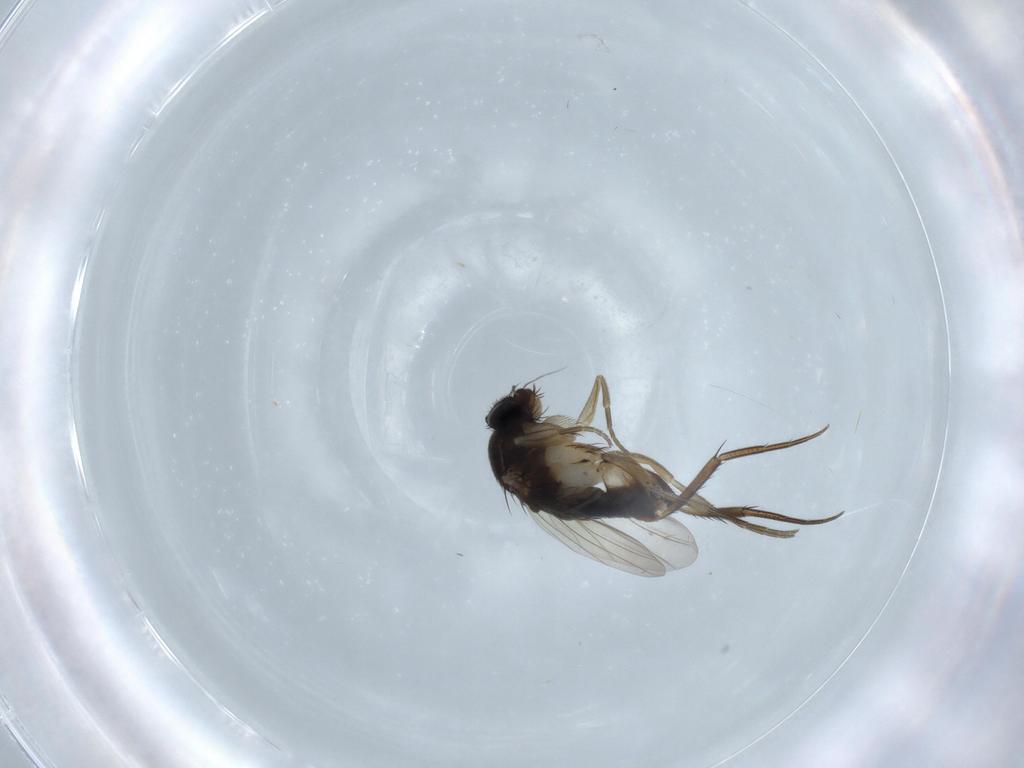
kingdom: Animalia
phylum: Arthropoda
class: Insecta
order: Diptera
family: Phoridae
